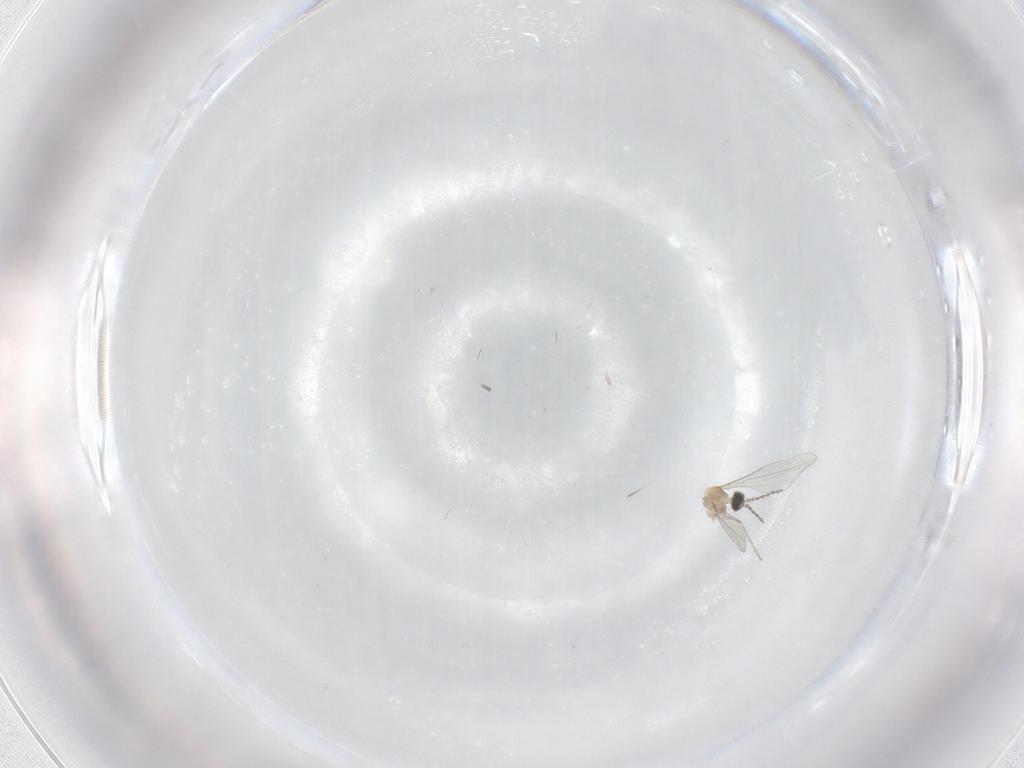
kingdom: Animalia
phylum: Arthropoda
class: Insecta
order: Diptera
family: Cecidomyiidae
